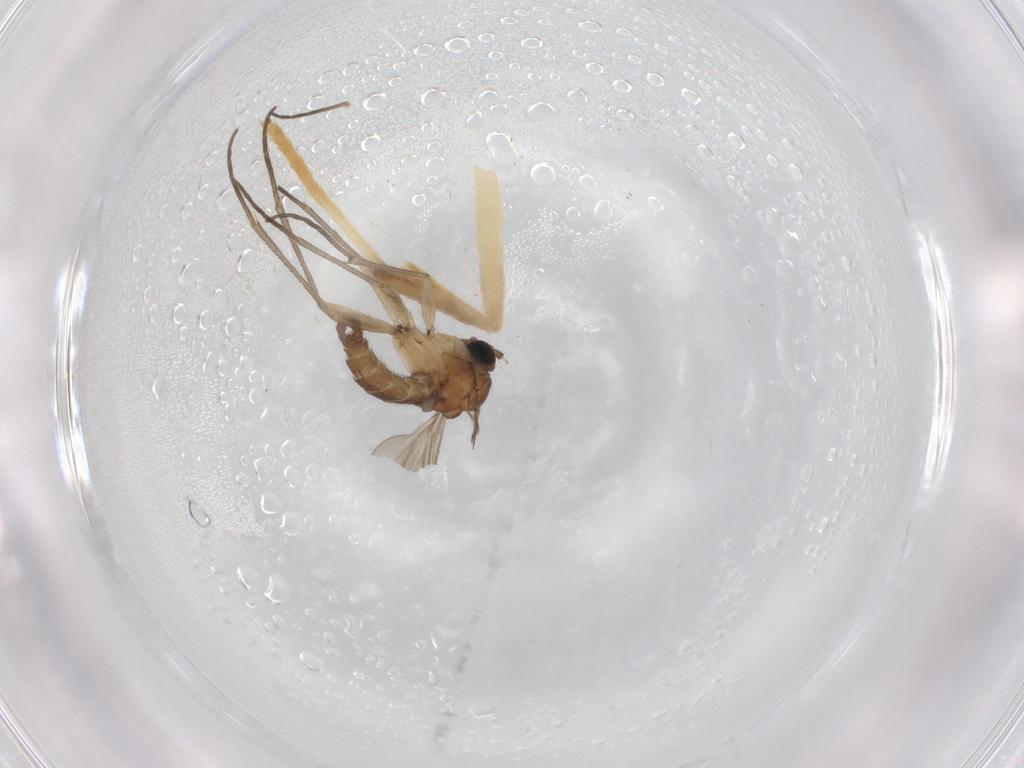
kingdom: Animalia
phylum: Arthropoda
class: Insecta
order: Diptera
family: Sciaridae
